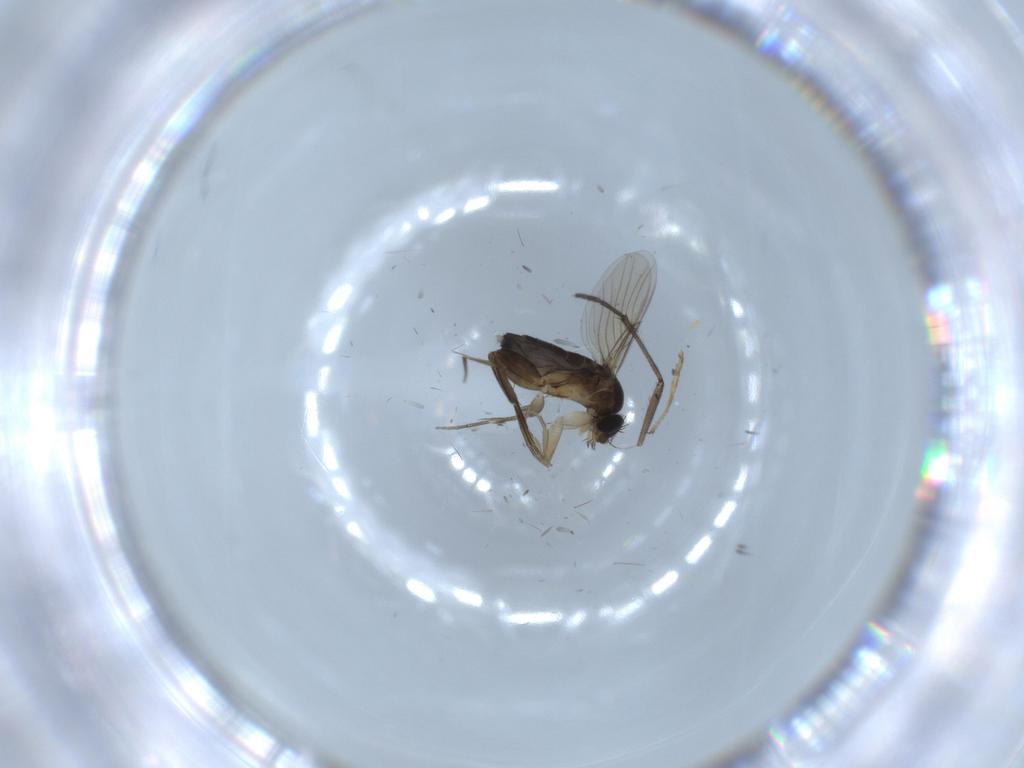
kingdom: Animalia
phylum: Arthropoda
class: Insecta
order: Diptera
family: Phoridae
